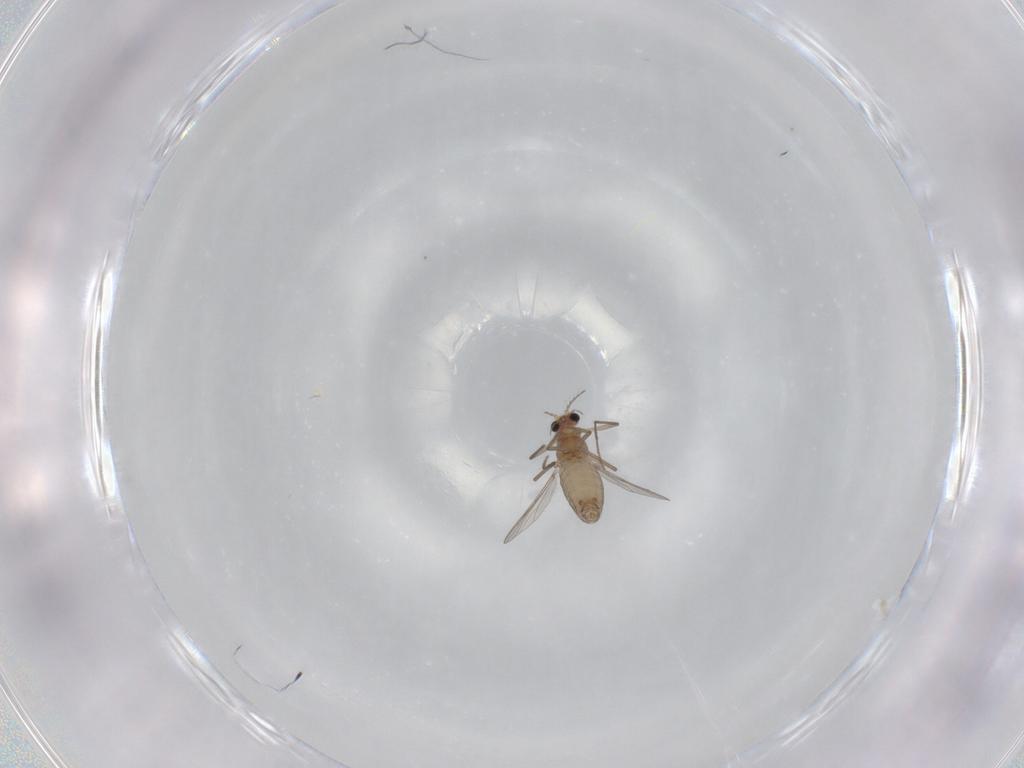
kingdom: Animalia
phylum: Arthropoda
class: Insecta
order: Diptera
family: Chironomidae
